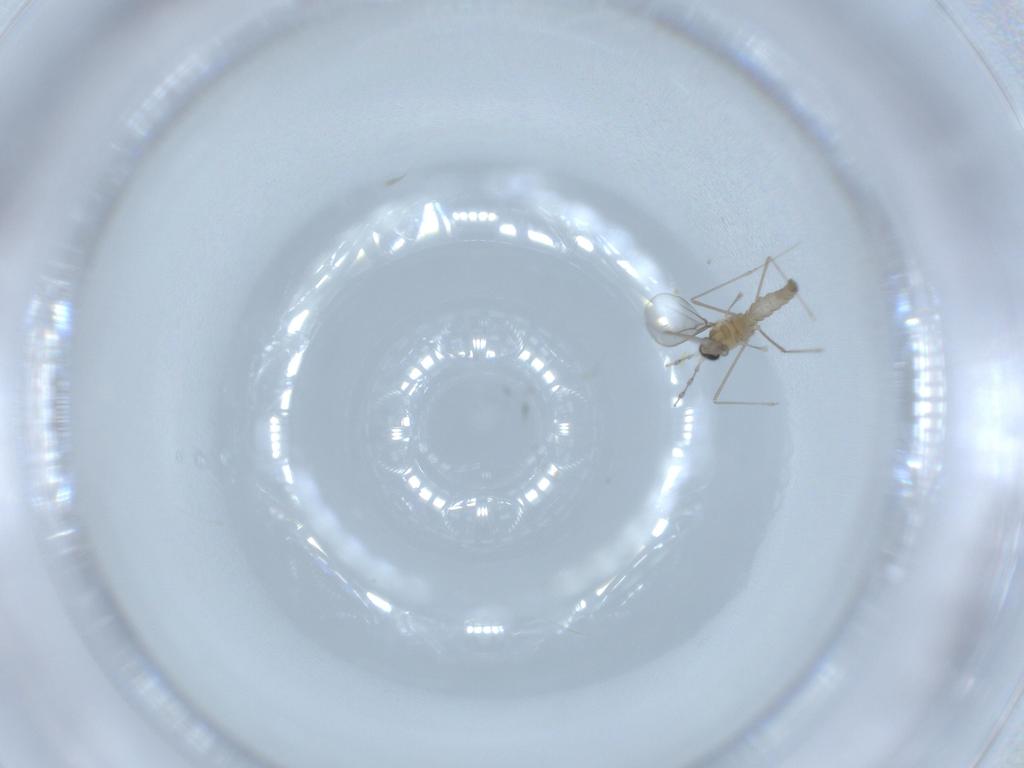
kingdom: Animalia
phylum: Arthropoda
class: Insecta
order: Diptera
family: Cecidomyiidae
